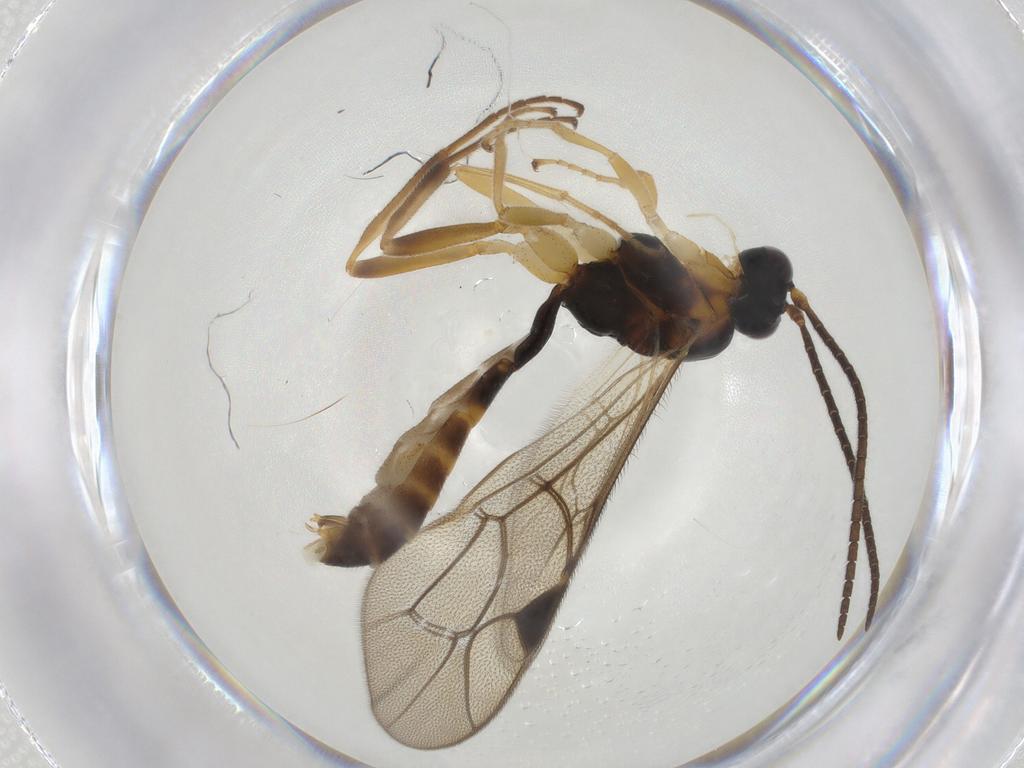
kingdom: Animalia
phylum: Arthropoda
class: Insecta
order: Hymenoptera
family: Ichneumonidae
